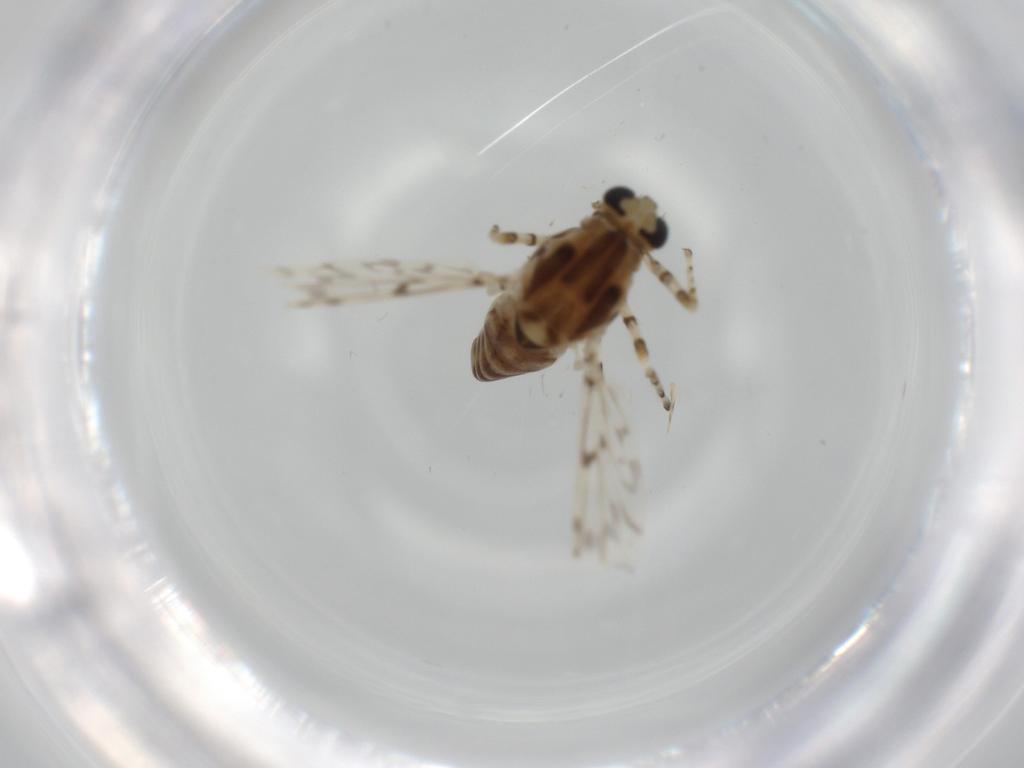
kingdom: Animalia
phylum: Arthropoda
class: Insecta
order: Diptera
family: Chironomidae
